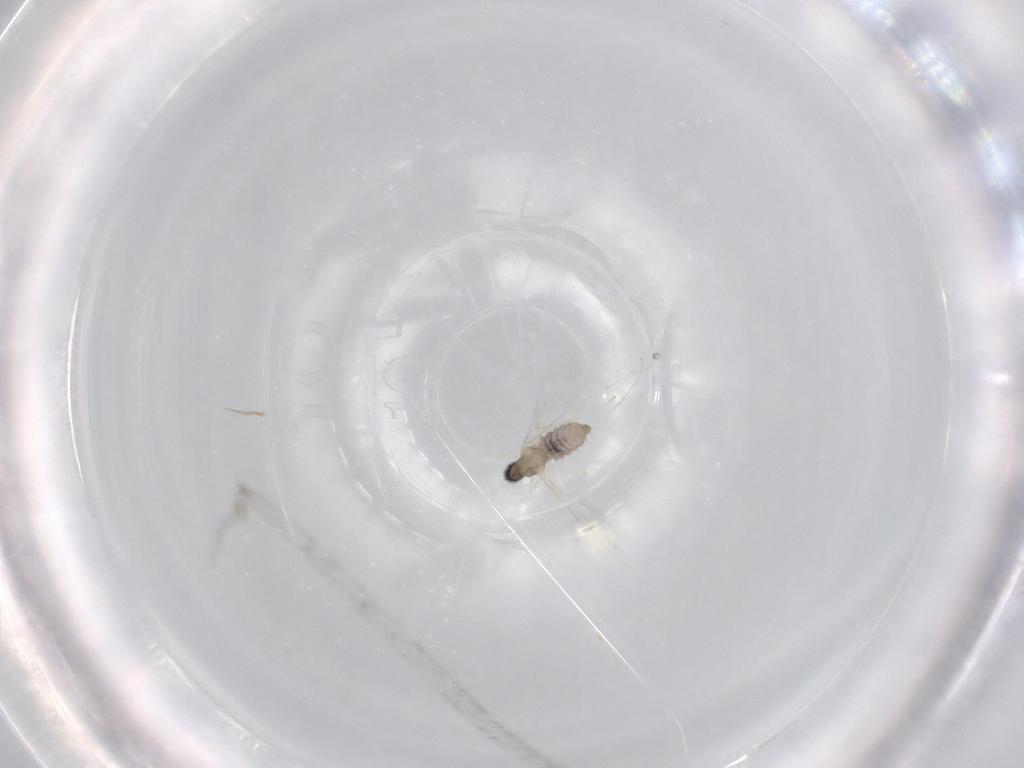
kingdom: Animalia
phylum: Arthropoda
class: Insecta
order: Diptera
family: Cecidomyiidae
